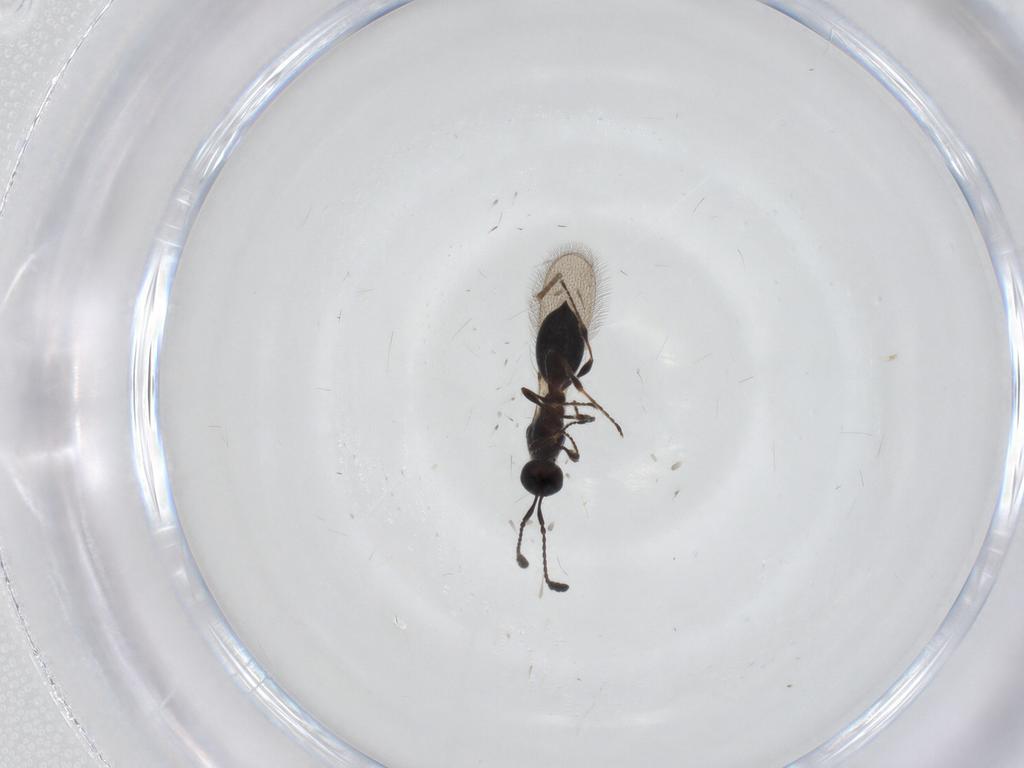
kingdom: Animalia
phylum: Arthropoda
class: Insecta
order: Hymenoptera
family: Diapriidae
